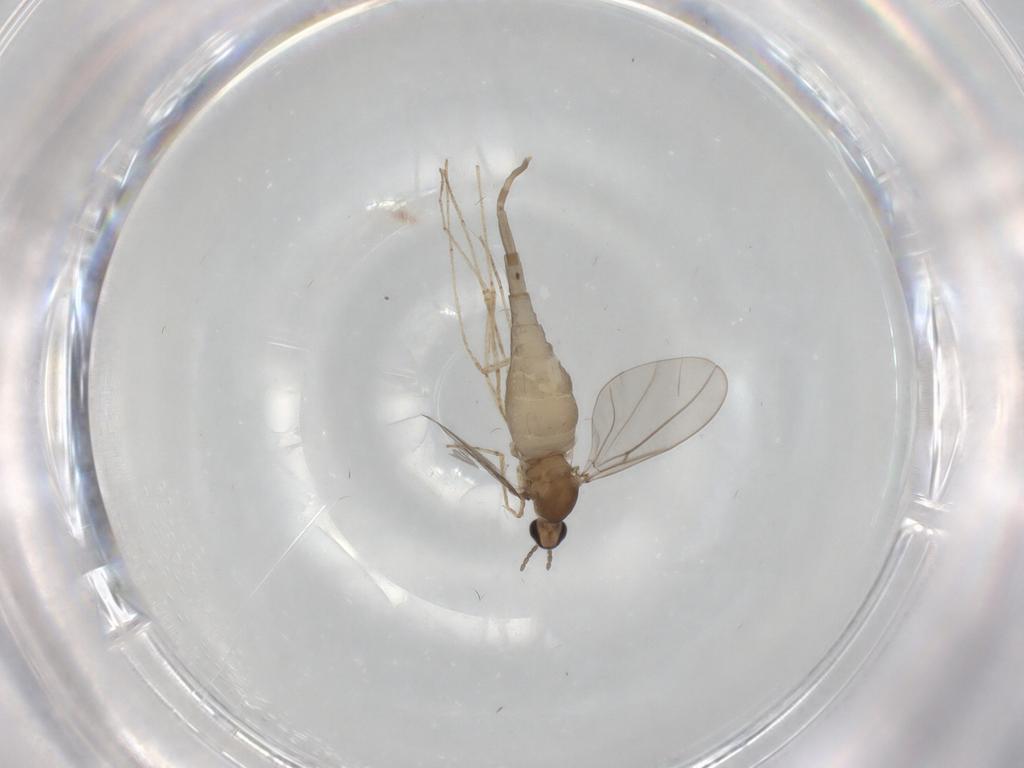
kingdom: Animalia
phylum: Arthropoda
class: Insecta
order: Diptera
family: Cecidomyiidae
